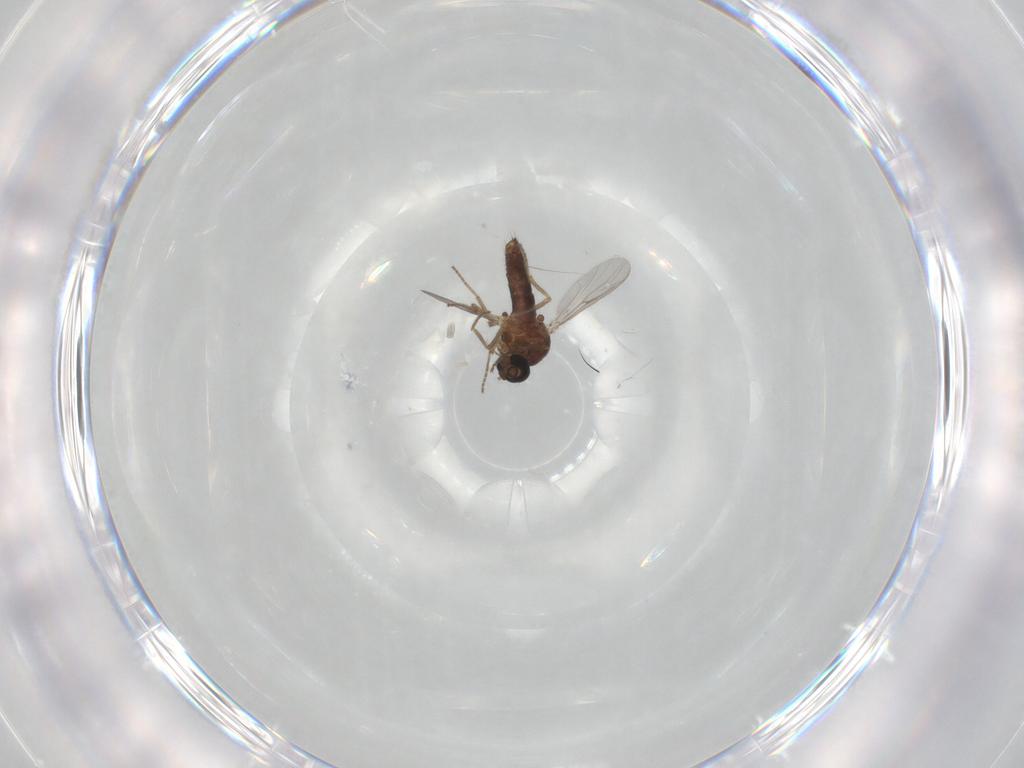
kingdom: Animalia
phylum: Arthropoda
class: Insecta
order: Diptera
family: Ceratopogonidae
